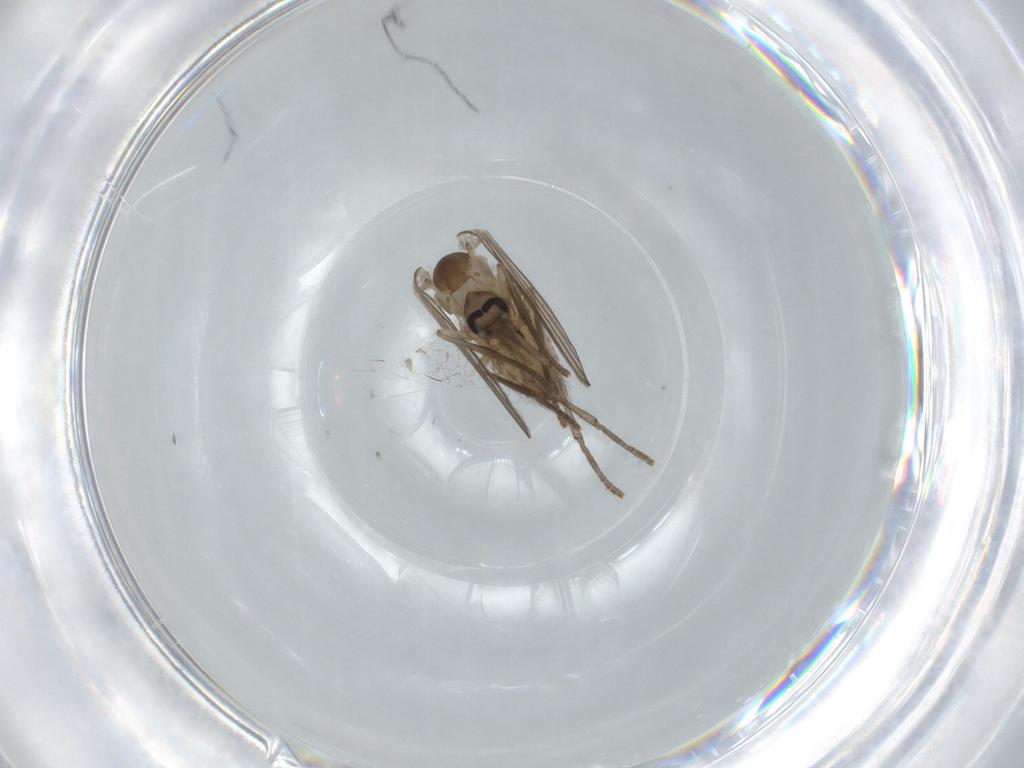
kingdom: Animalia
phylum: Arthropoda
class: Insecta
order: Diptera
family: Psychodidae
